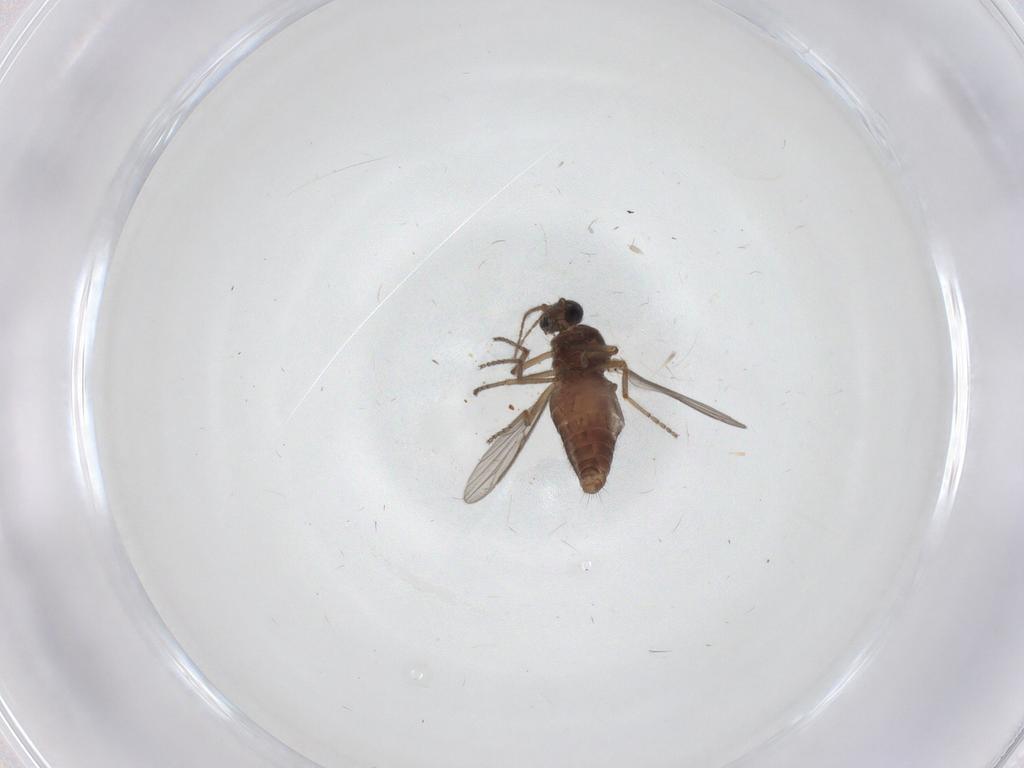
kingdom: Animalia
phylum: Arthropoda
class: Insecta
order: Diptera
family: Ceratopogonidae
